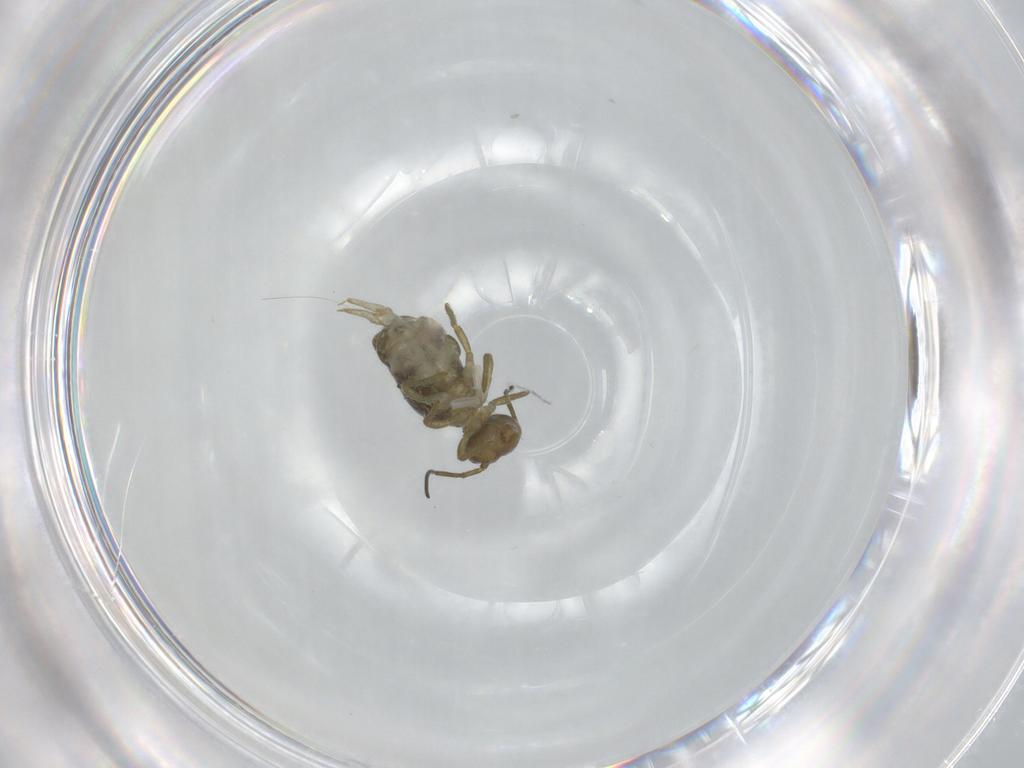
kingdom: Animalia
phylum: Arthropoda
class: Collembola
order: Symphypleona
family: Sminthuridae
